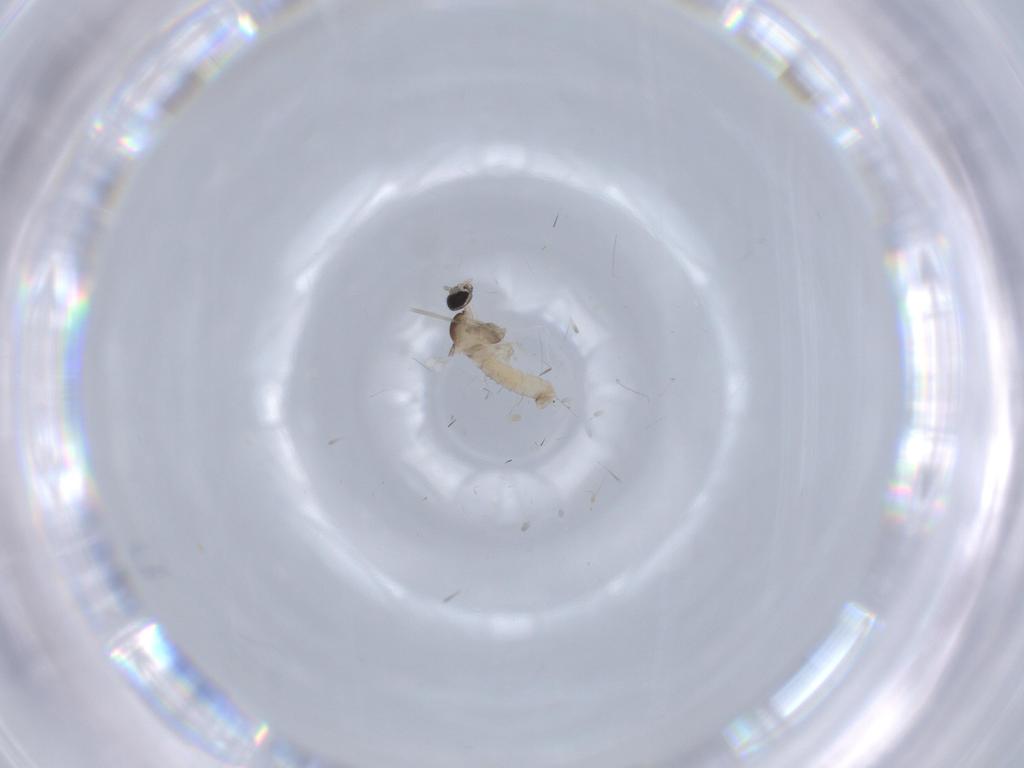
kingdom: Animalia
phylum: Arthropoda
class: Insecta
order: Diptera
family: Cecidomyiidae
